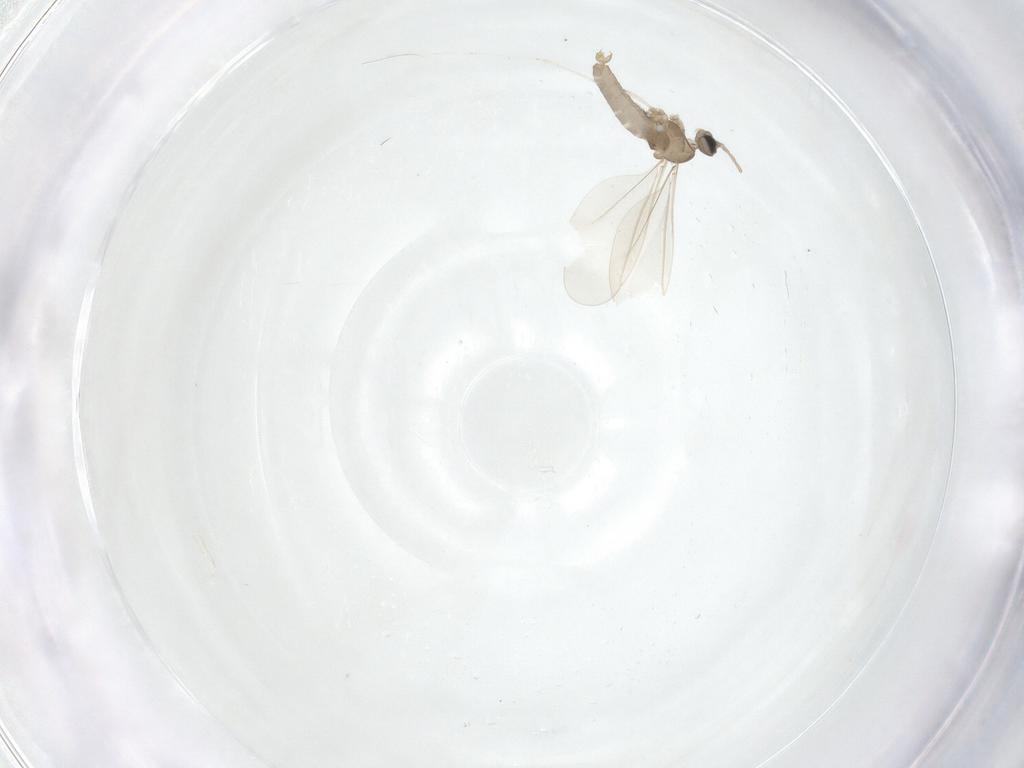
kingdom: Animalia
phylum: Arthropoda
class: Insecta
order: Diptera
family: Cecidomyiidae
